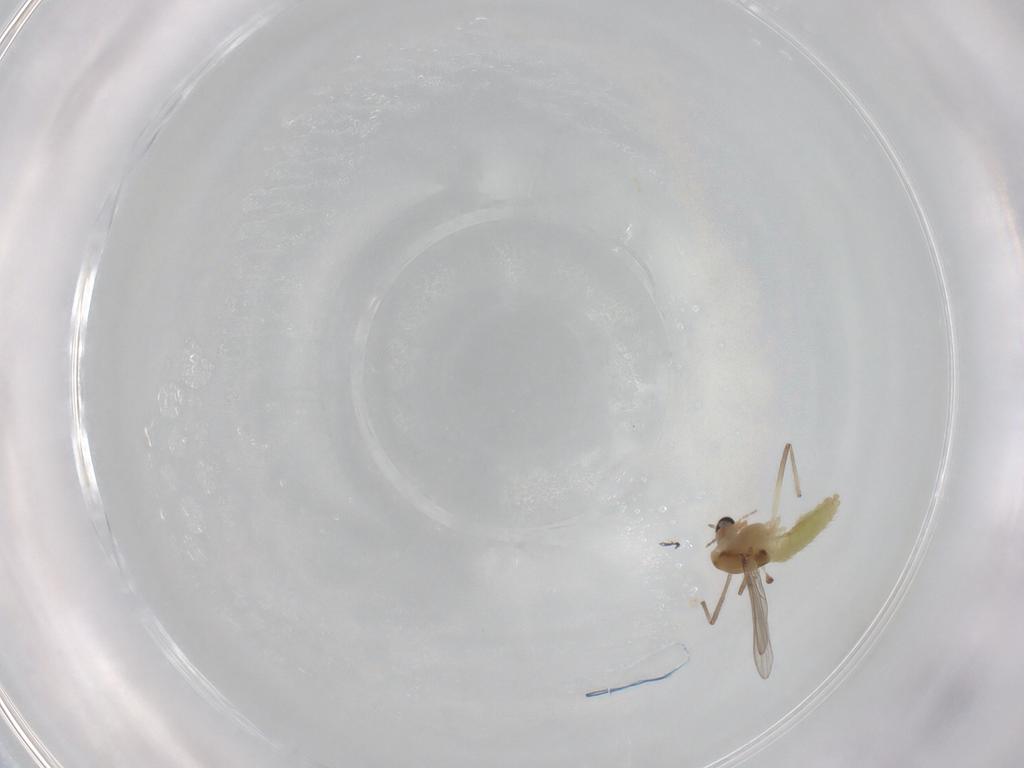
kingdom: Animalia
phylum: Arthropoda
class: Insecta
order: Diptera
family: Chironomidae
